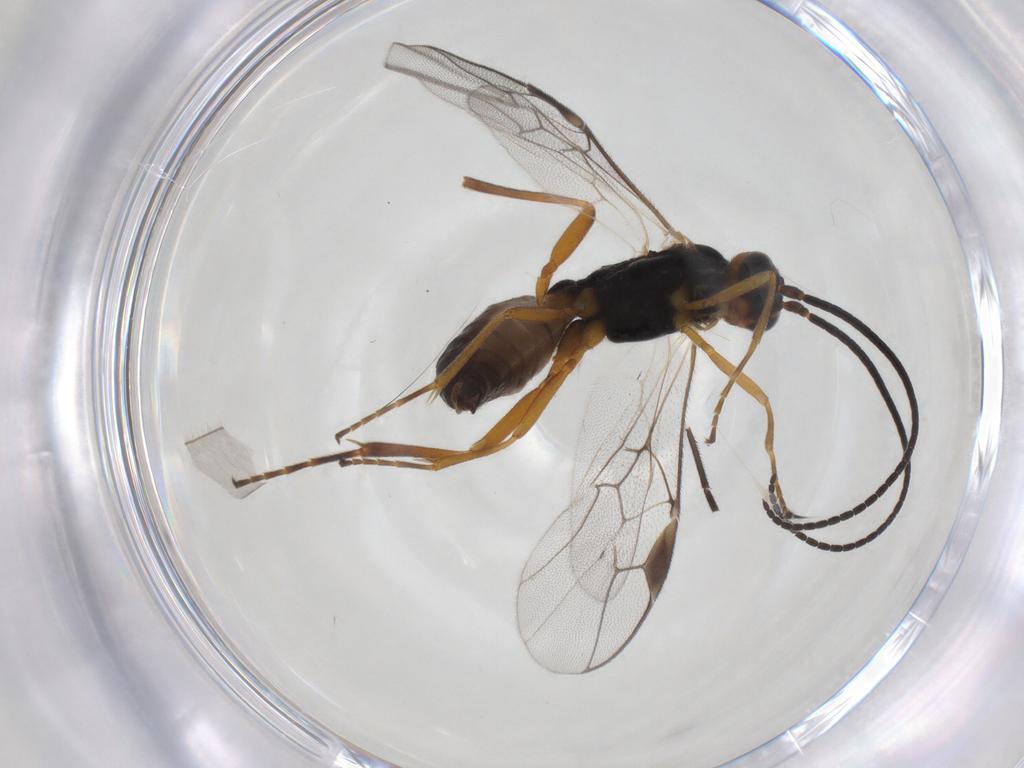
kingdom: Animalia
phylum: Arthropoda
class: Insecta
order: Hymenoptera
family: Braconidae
